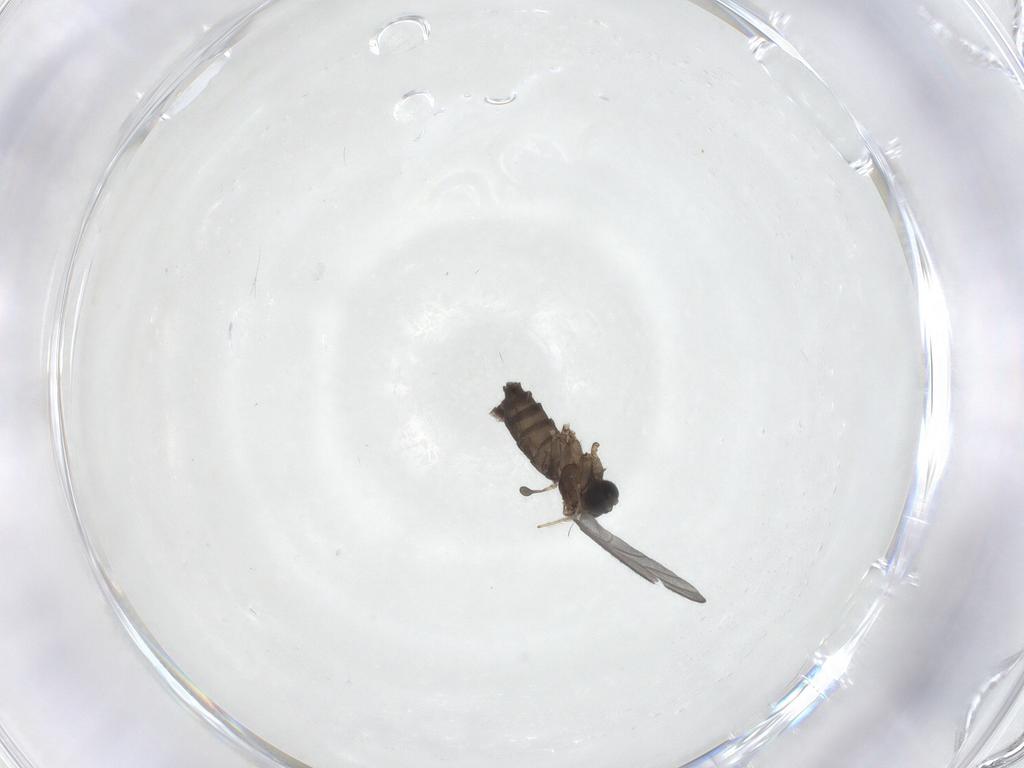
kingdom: Animalia
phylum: Arthropoda
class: Insecta
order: Diptera
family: Sciaridae
